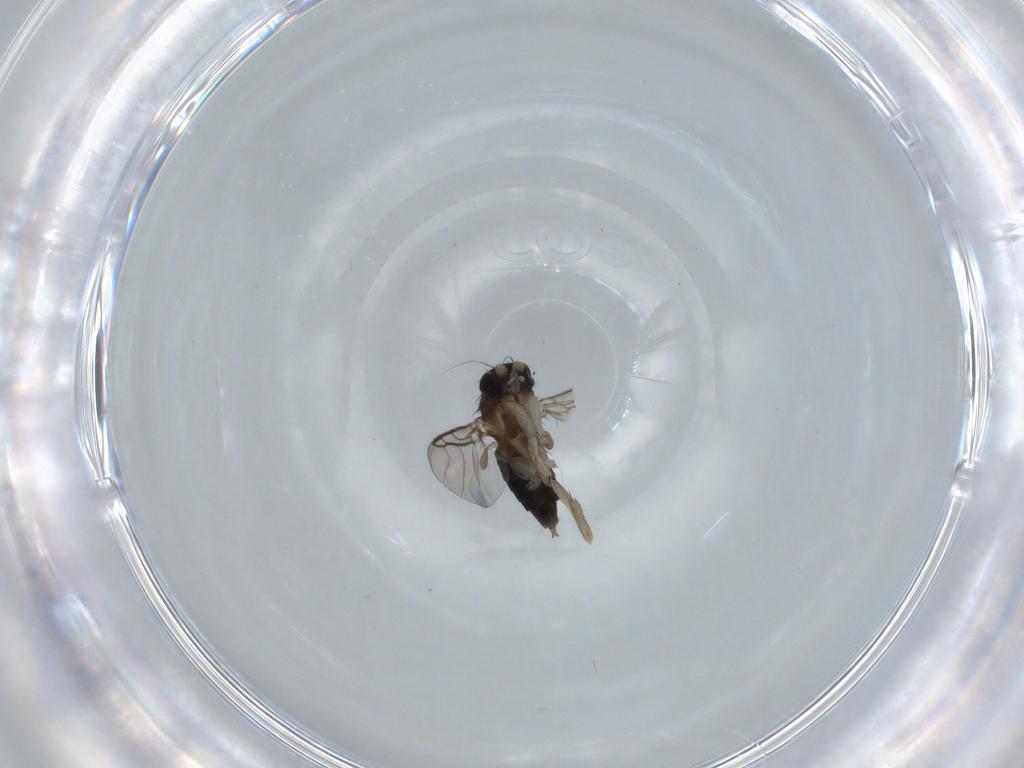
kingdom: Animalia
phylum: Arthropoda
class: Insecta
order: Diptera
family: Phoridae
